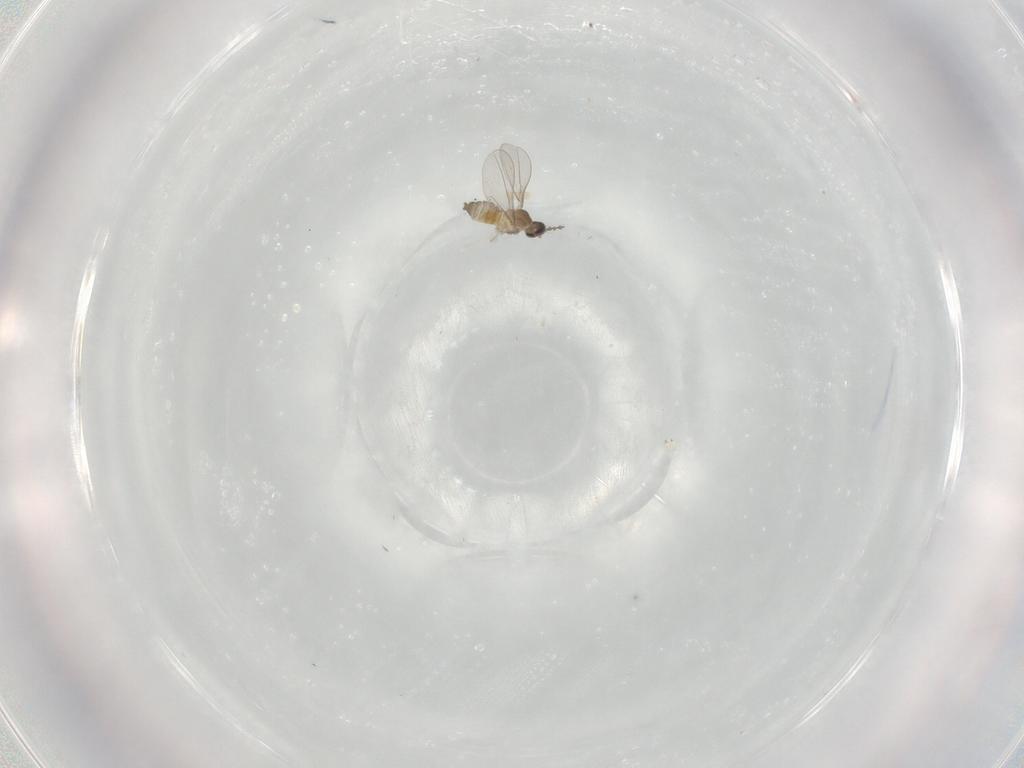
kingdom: Animalia
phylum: Arthropoda
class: Insecta
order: Diptera
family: Cecidomyiidae
